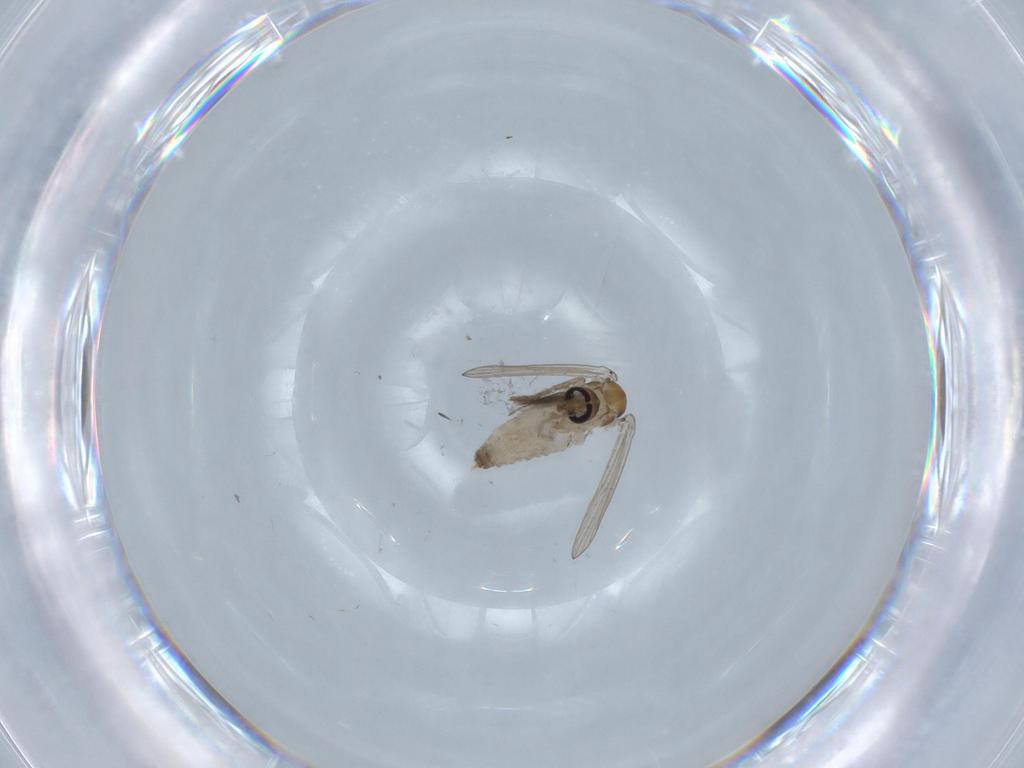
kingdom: Animalia
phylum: Arthropoda
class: Insecta
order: Diptera
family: Psychodidae
